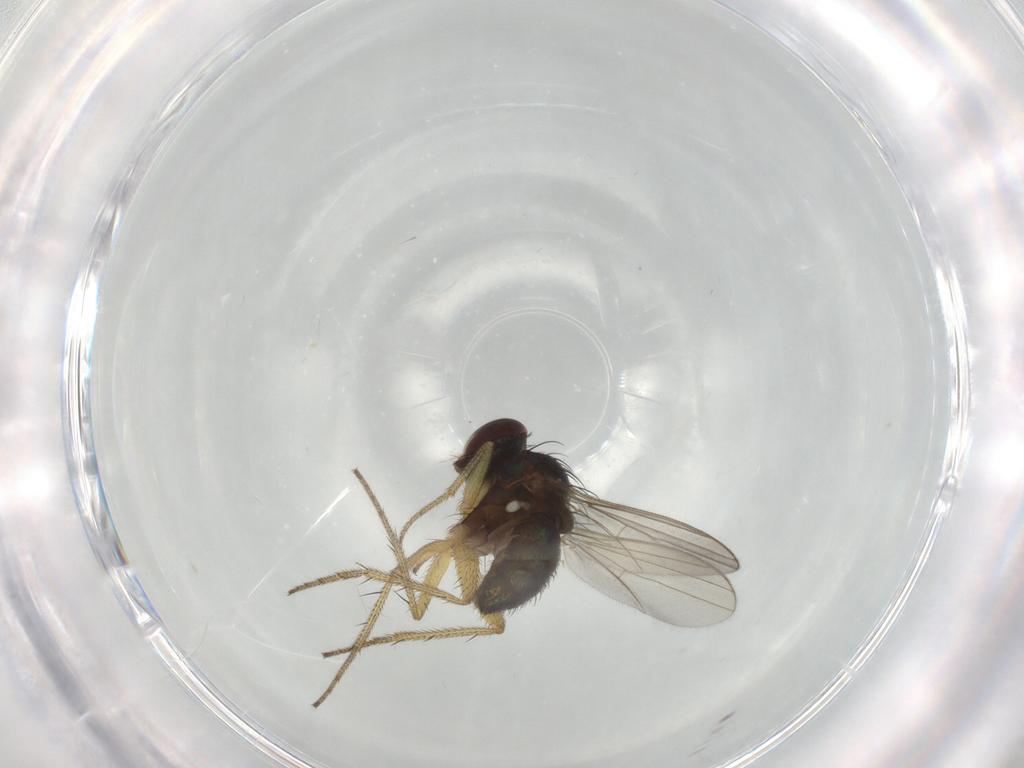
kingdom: Animalia
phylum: Arthropoda
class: Insecta
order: Diptera
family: Dolichopodidae
